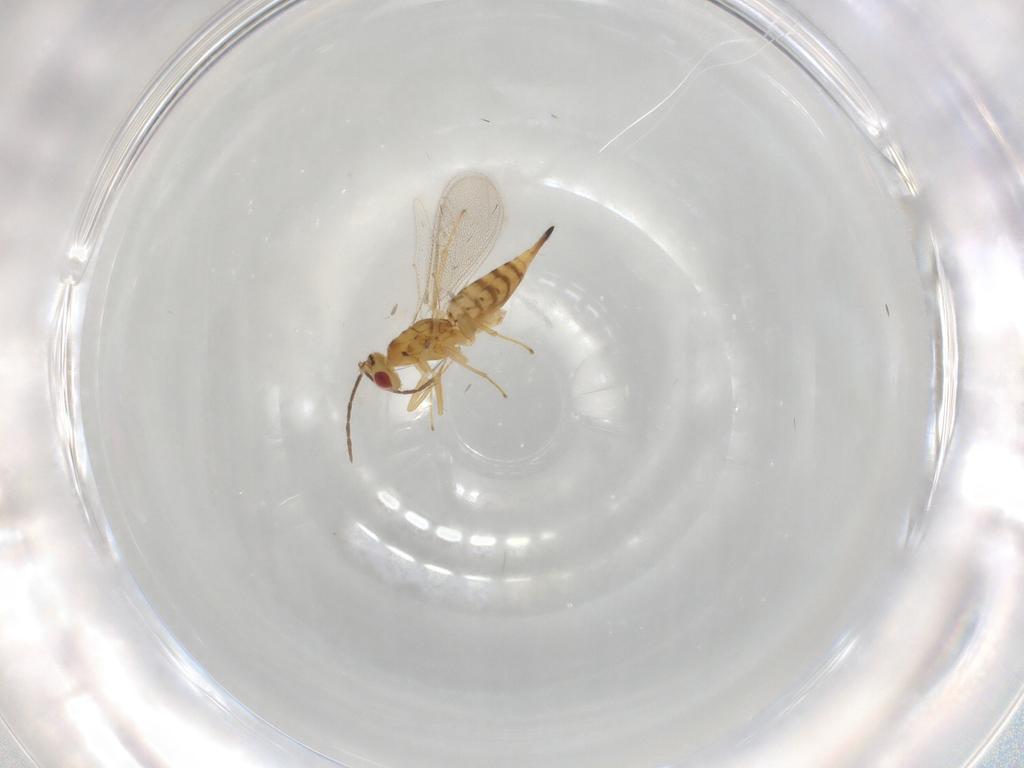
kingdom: Animalia
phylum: Arthropoda
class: Insecta
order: Hymenoptera
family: Eulophidae
